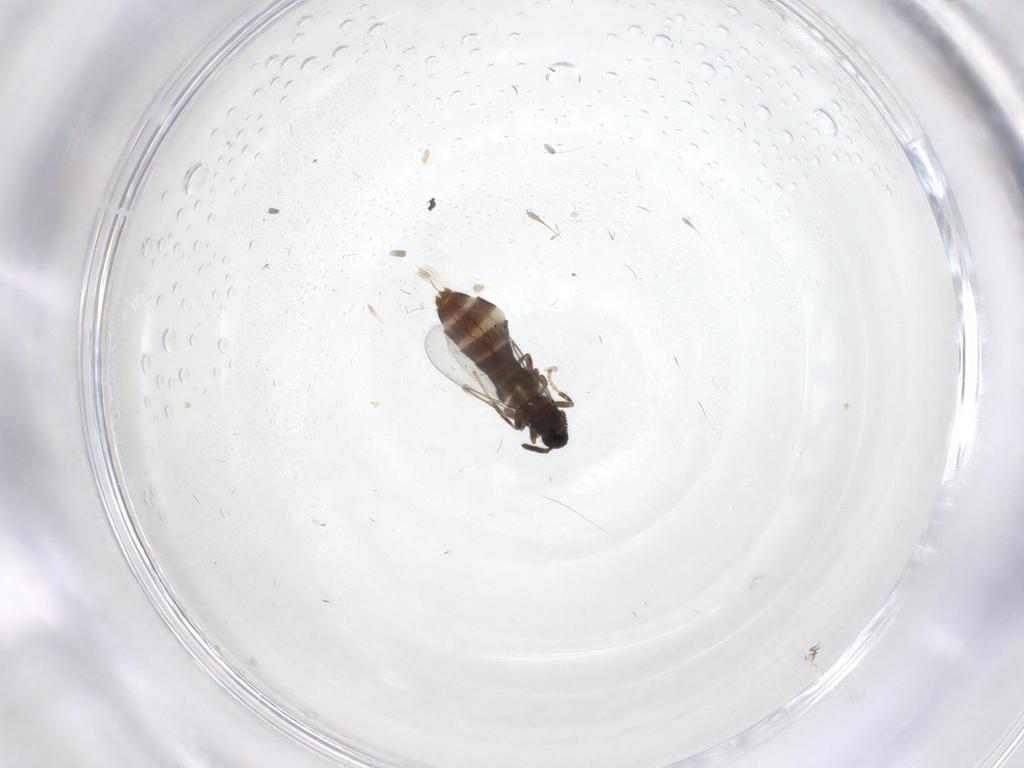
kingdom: Animalia
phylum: Arthropoda
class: Insecta
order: Diptera
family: Scatopsidae
